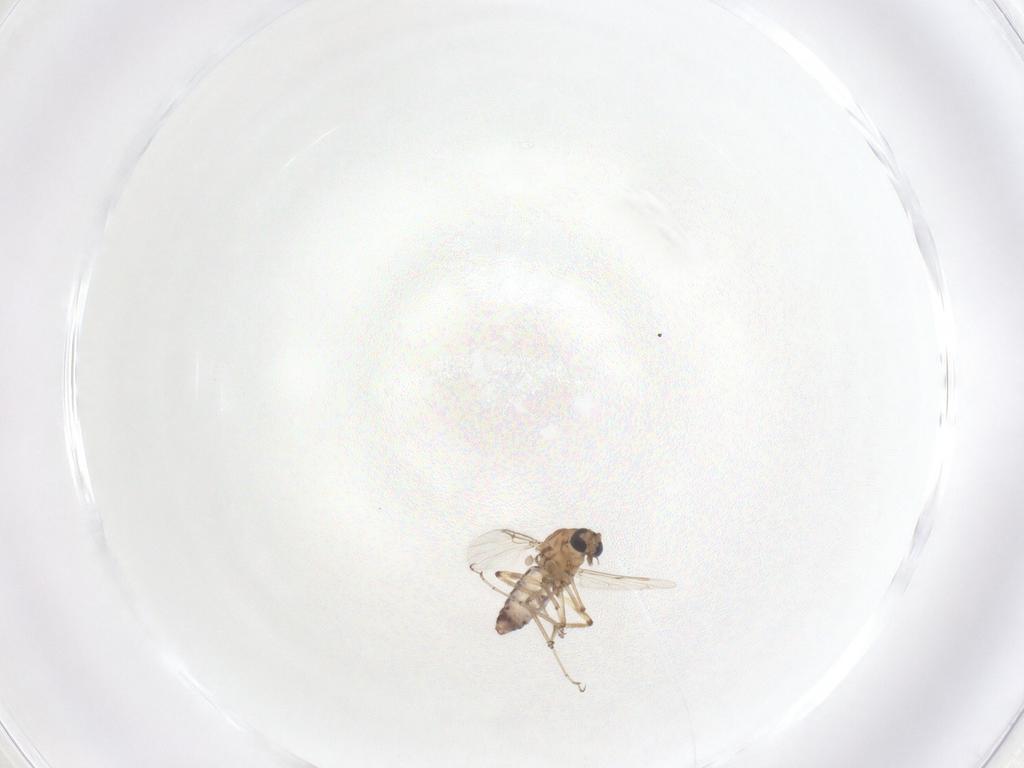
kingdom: Animalia
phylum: Arthropoda
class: Insecta
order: Diptera
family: Ceratopogonidae
